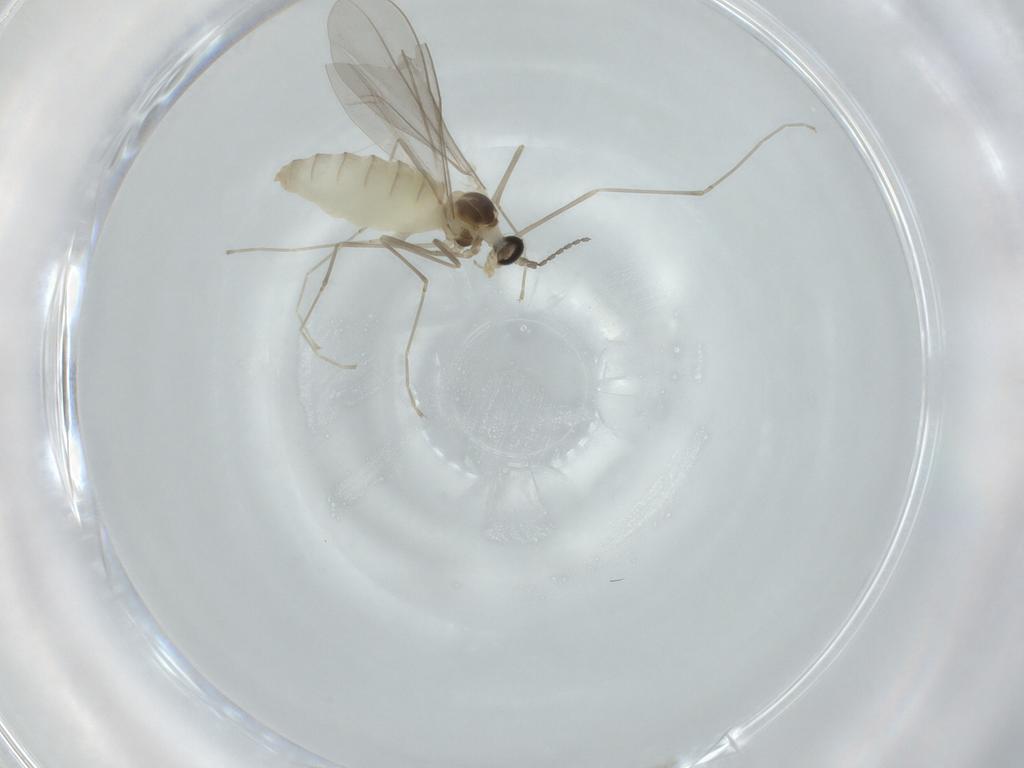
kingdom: Animalia
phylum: Arthropoda
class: Insecta
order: Diptera
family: Cecidomyiidae
